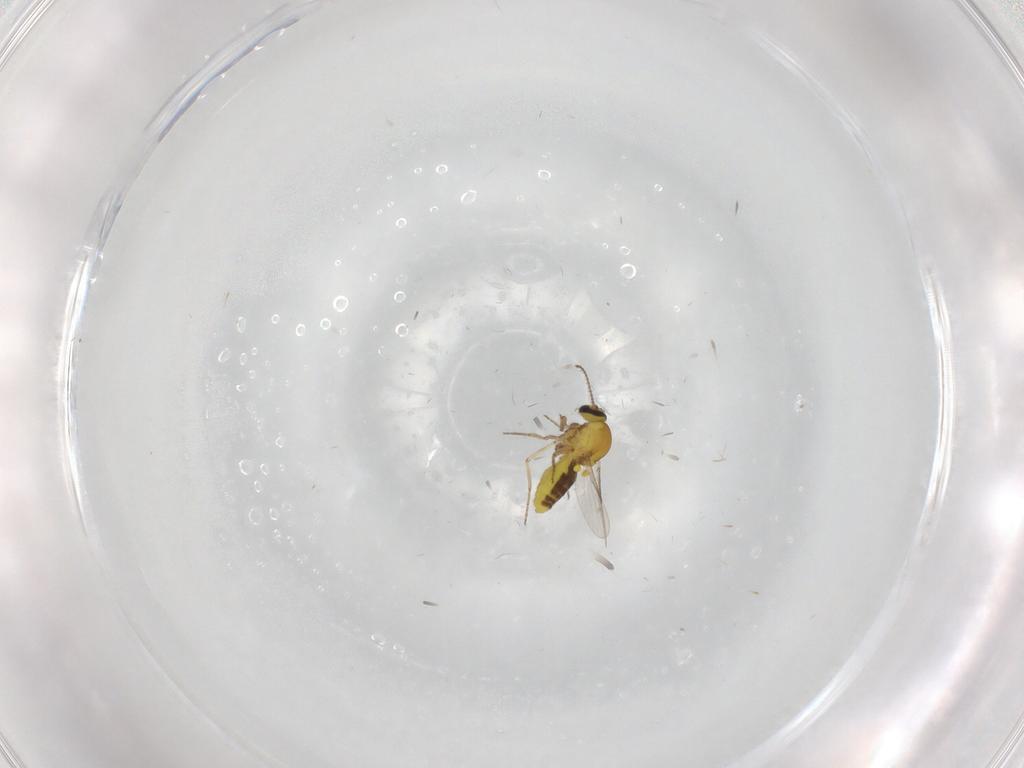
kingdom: Animalia
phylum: Arthropoda
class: Insecta
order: Diptera
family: Ceratopogonidae
